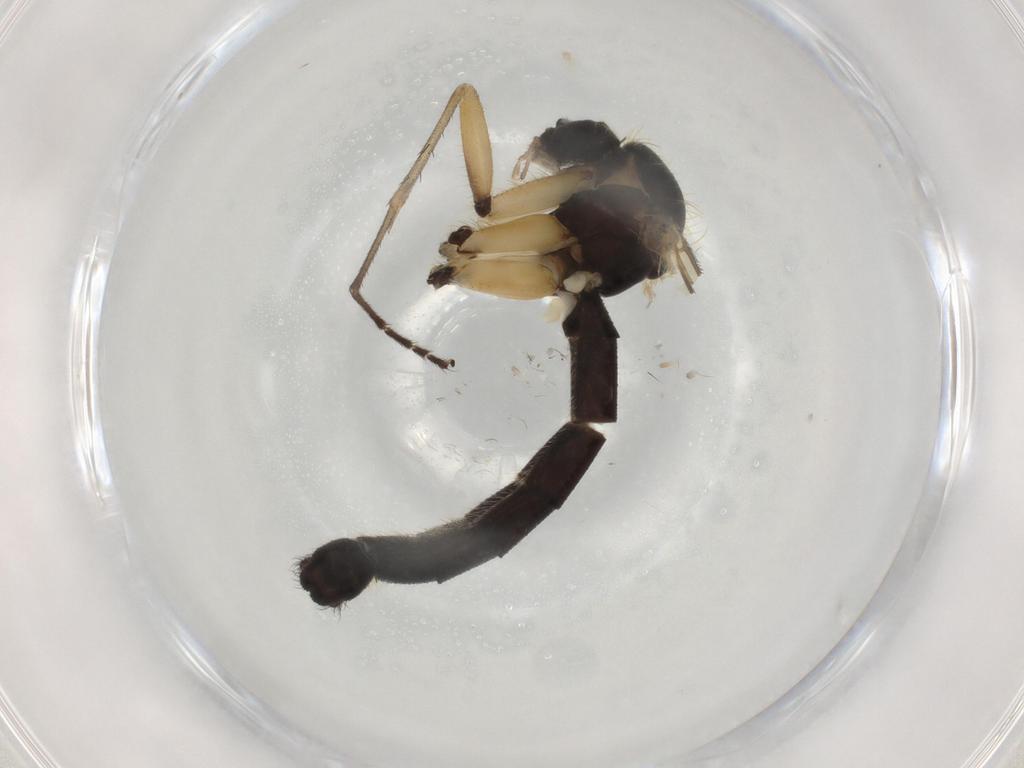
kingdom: Animalia
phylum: Arthropoda
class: Insecta
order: Diptera
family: Mycetophilidae
